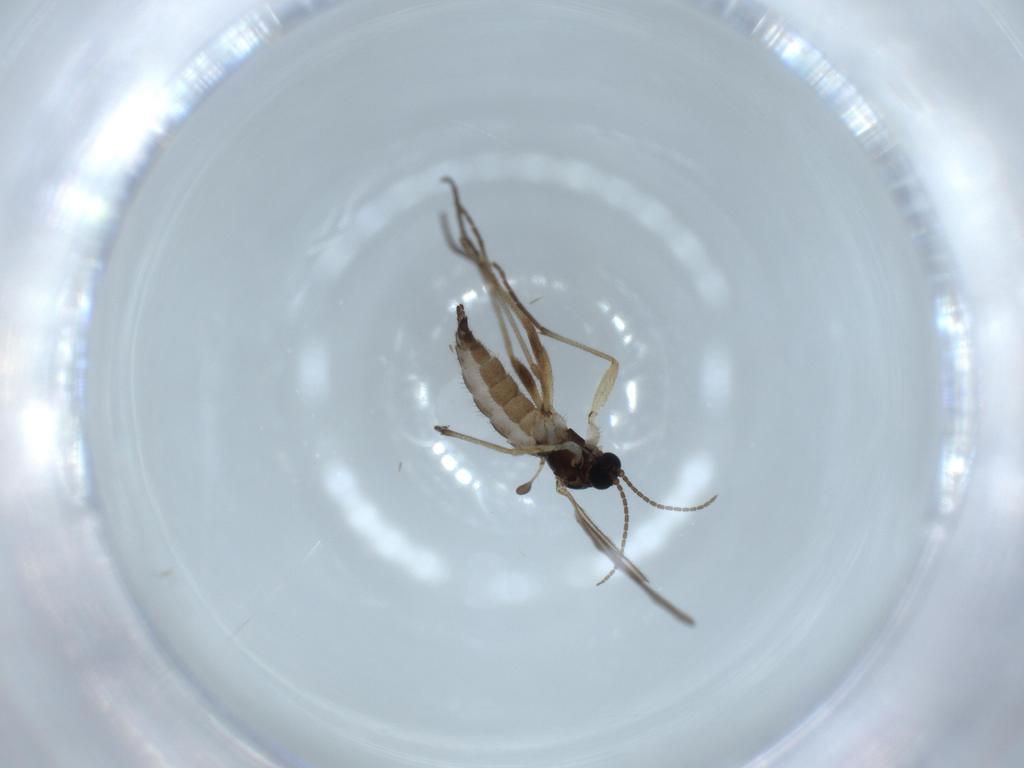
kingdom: Animalia
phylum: Arthropoda
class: Insecta
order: Diptera
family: Sciaridae
